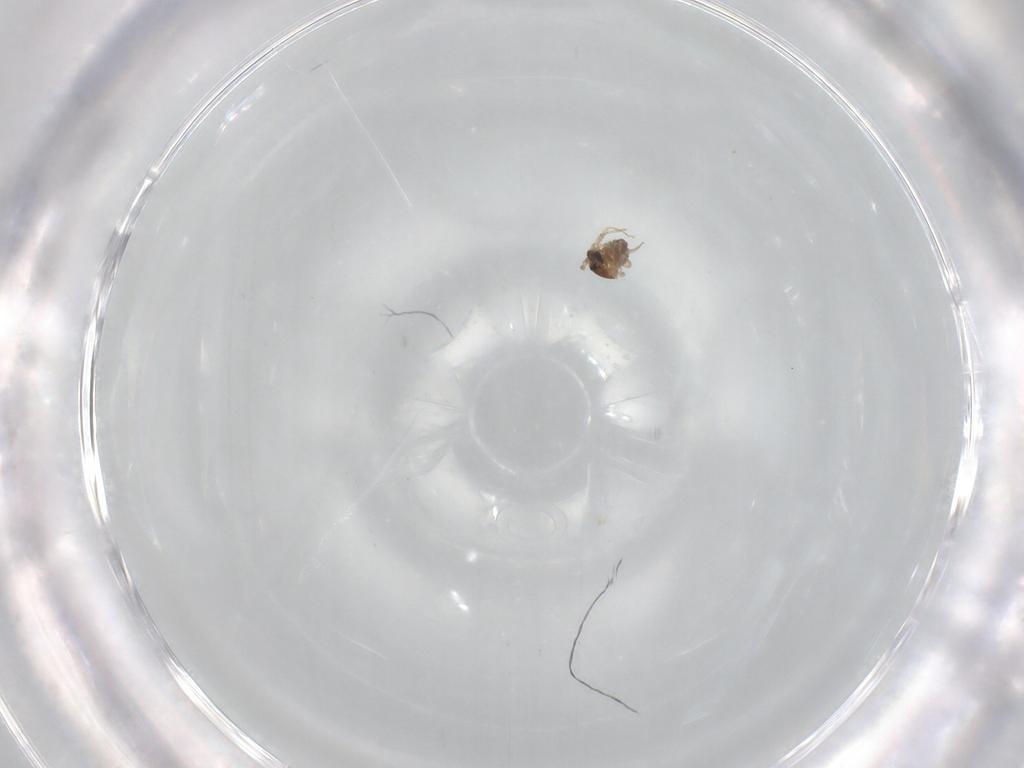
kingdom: Animalia
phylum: Arthropoda
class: Insecta
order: Diptera
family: Cecidomyiidae
